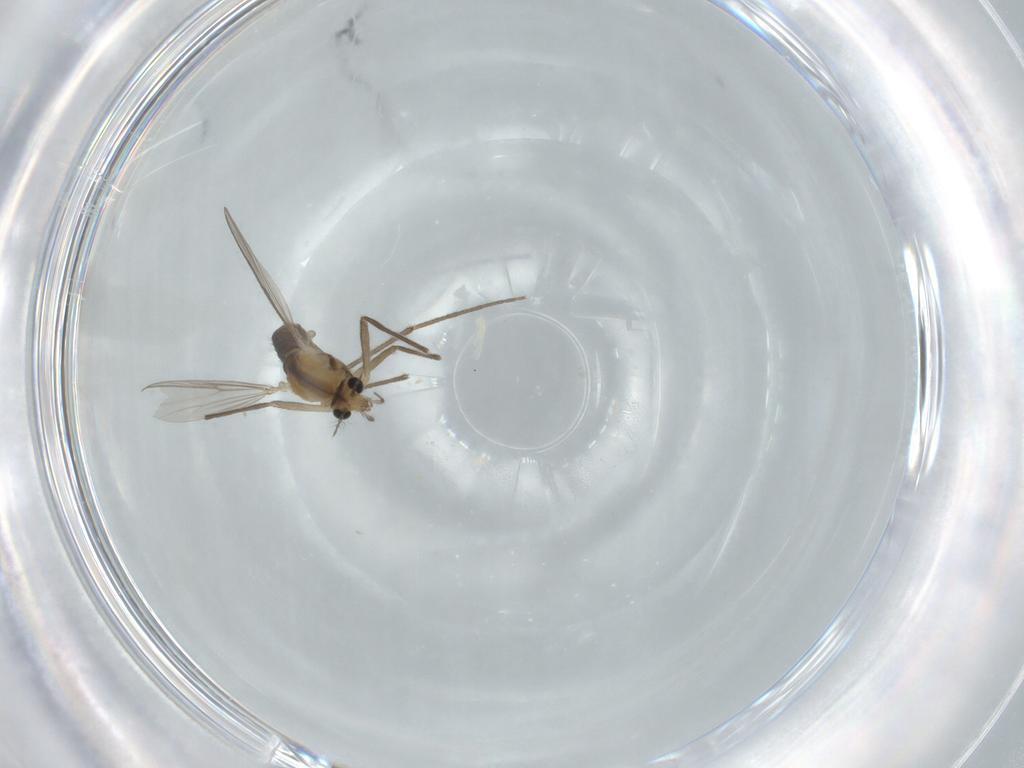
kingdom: Animalia
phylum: Arthropoda
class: Insecta
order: Diptera
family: Chironomidae
